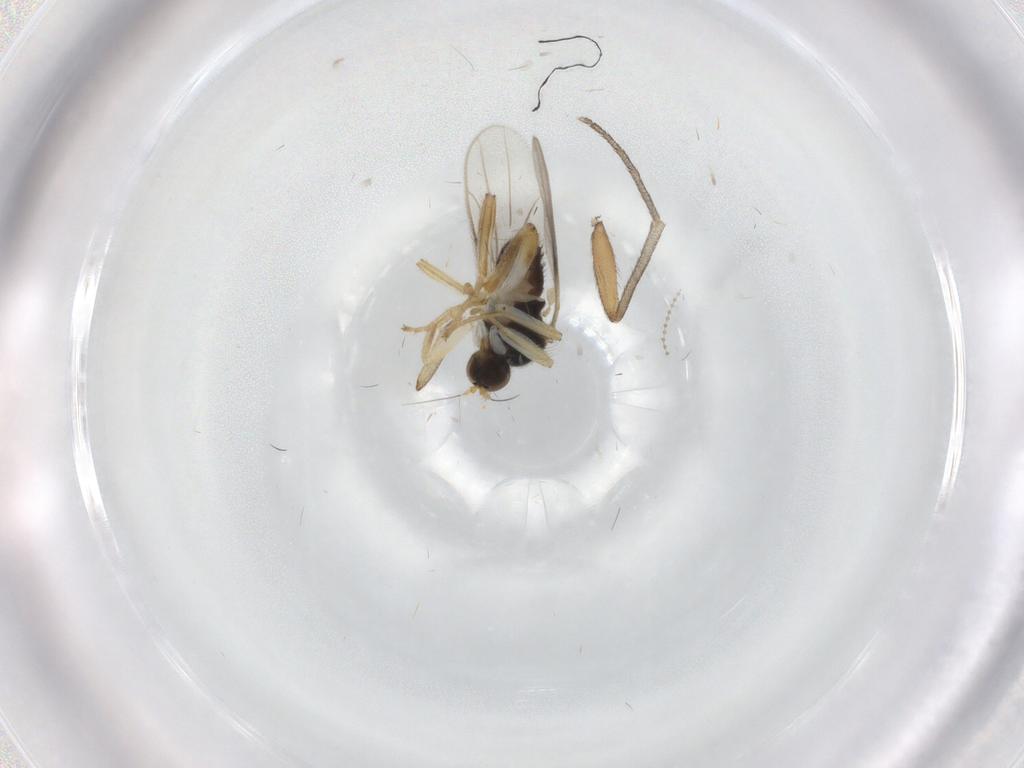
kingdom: Animalia
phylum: Arthropoda
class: Insecta
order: Diptera
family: Hybotidae
